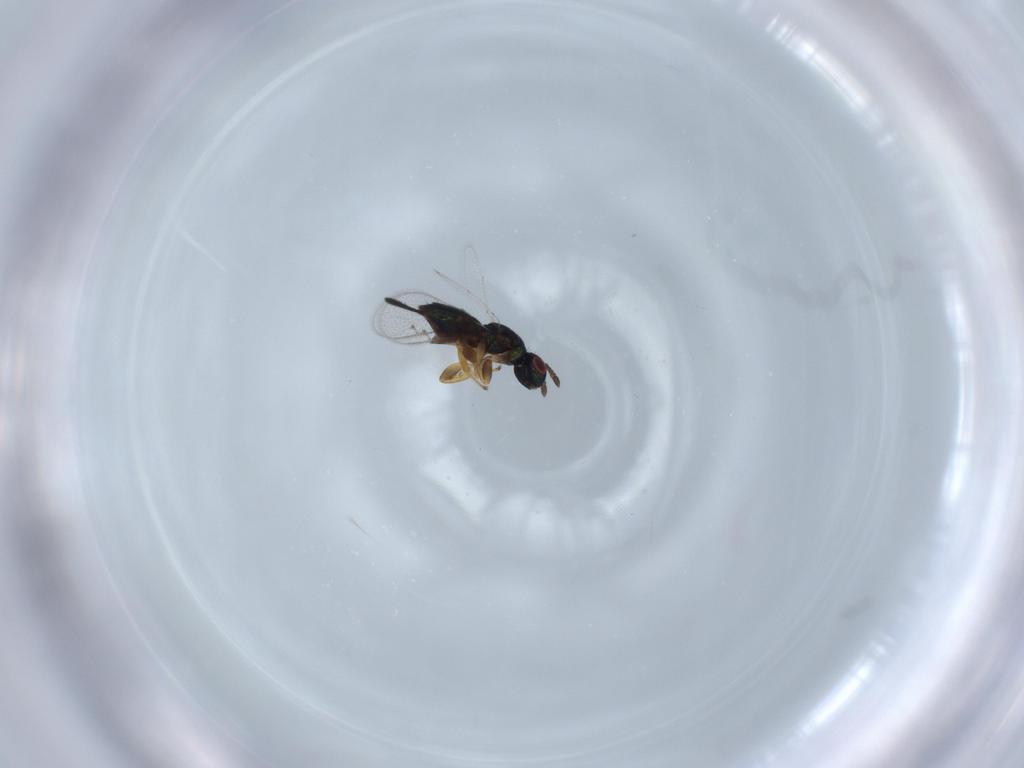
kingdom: Animalia
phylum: Arthropoda
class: Insecta
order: Hymenoptera
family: Torymidae
